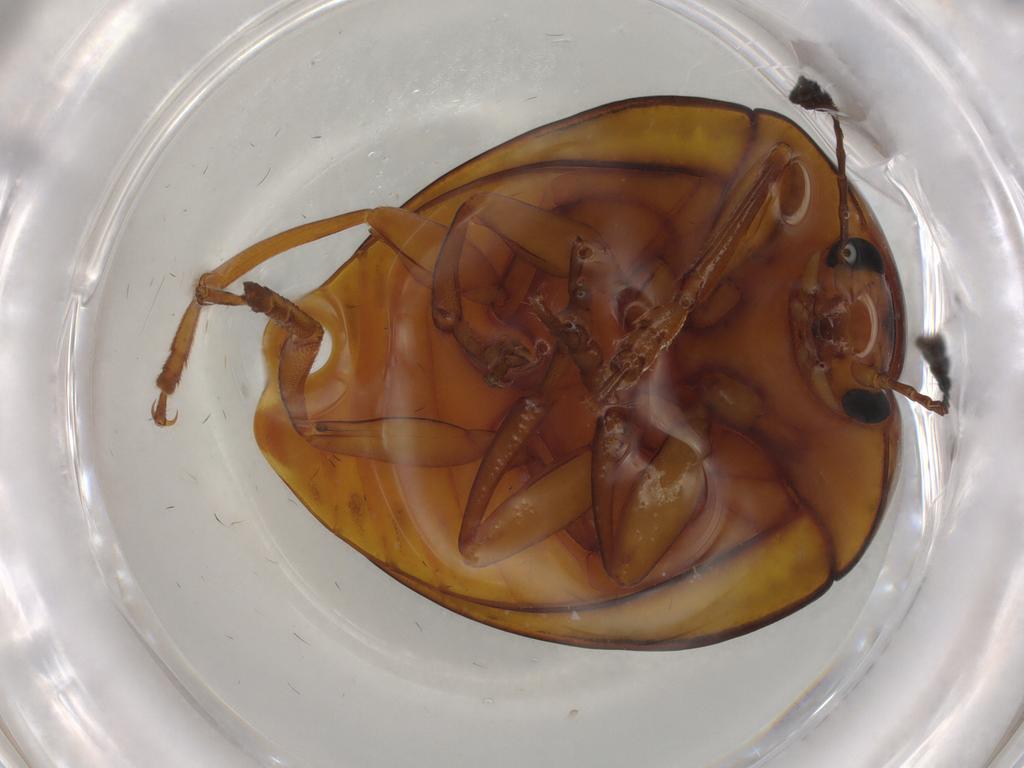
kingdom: Animalia
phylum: Arthropoda
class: Insecta
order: Coleoptera
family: Erotylidae
